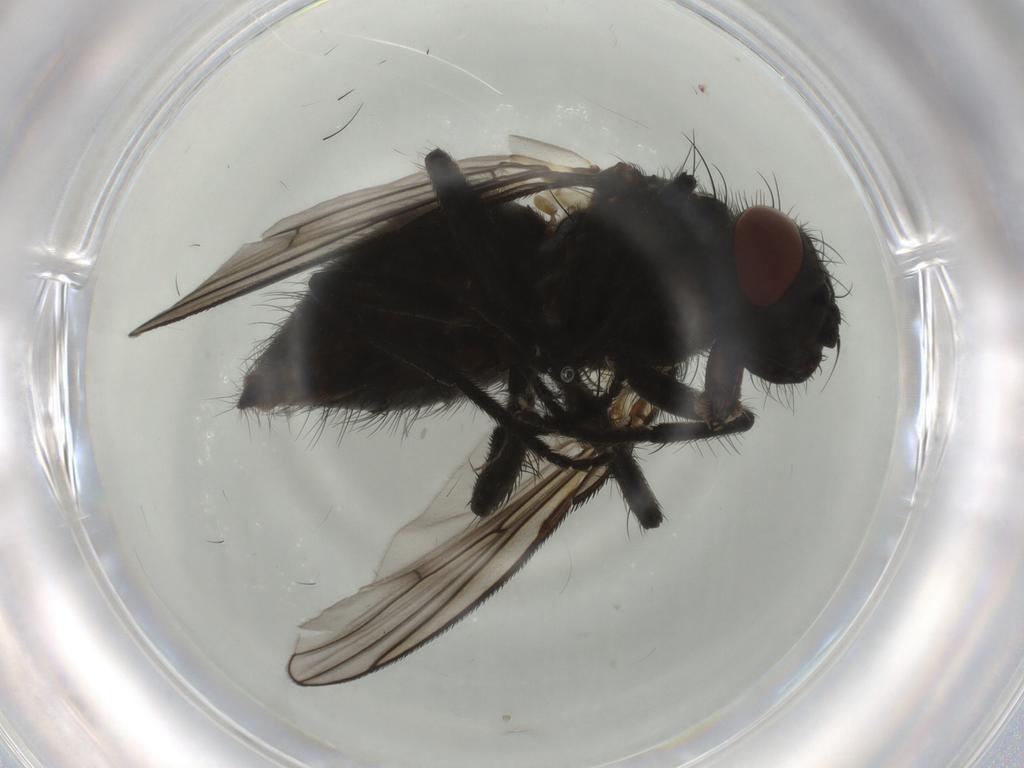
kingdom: Animalia
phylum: Arthropoda
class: Insecta
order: Diptera
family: Muscidae
